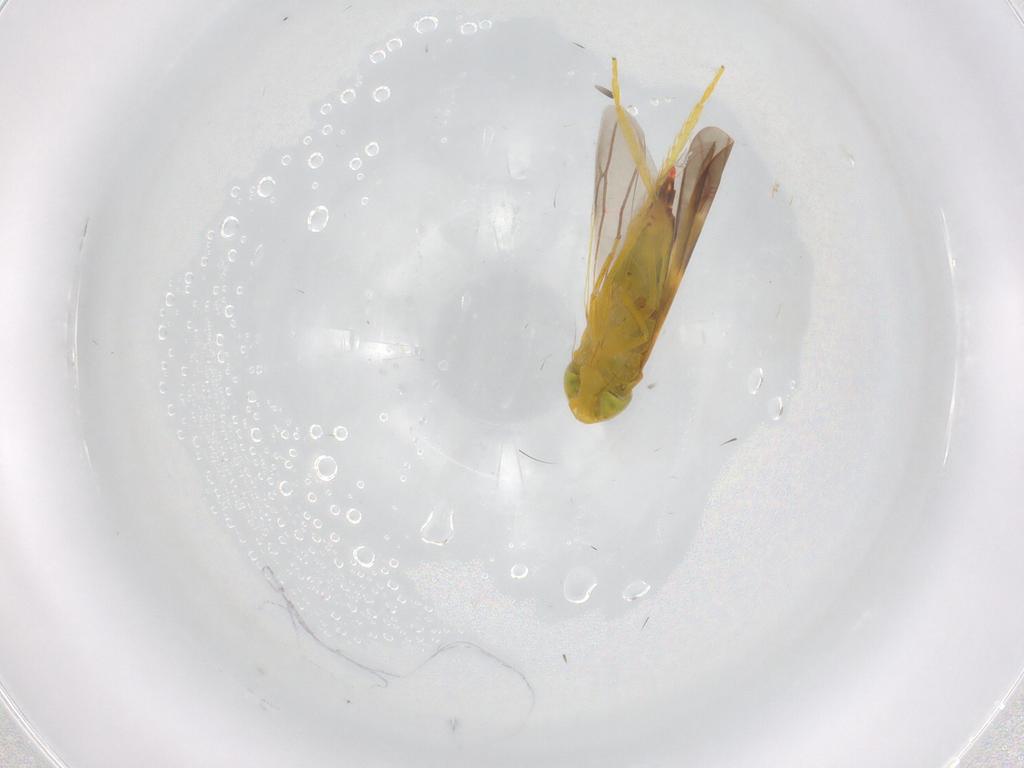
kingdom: Animalia
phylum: Arthropoda
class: Insecta
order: Hemiptera
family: Cicadellidae
